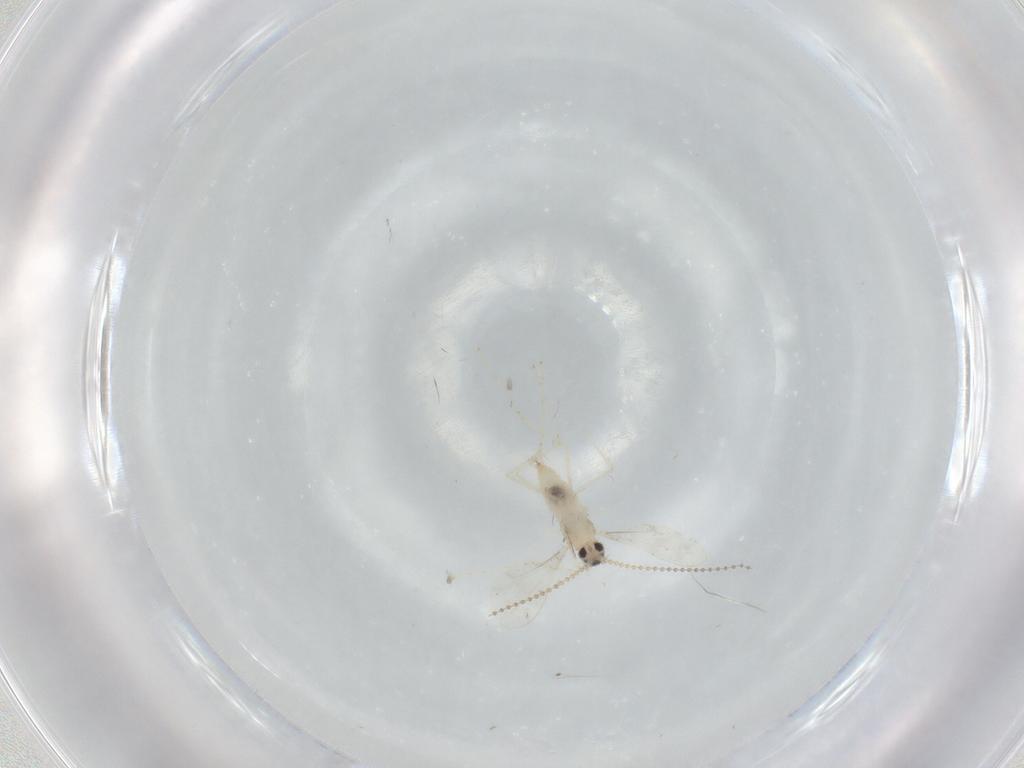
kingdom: Animalia
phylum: Arthropoda
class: Insecta
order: Diptera
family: Cecidomyiidae
